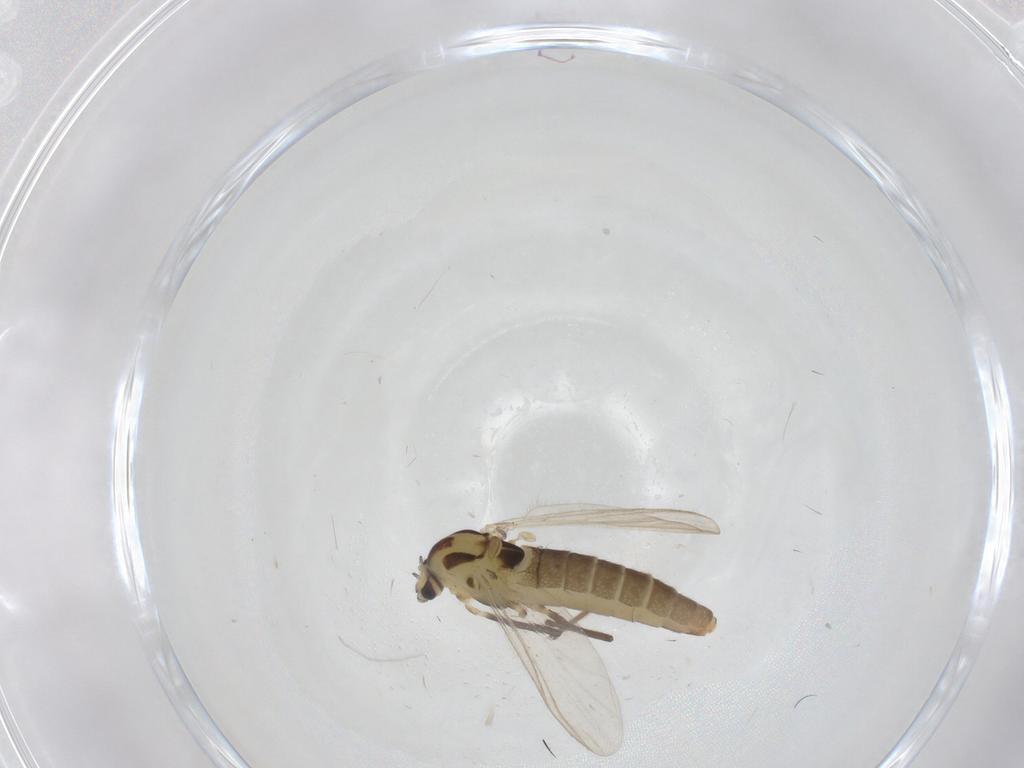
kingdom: Animalia
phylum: Arthropoda
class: Insecta
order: Diptera
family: Chironomidae
